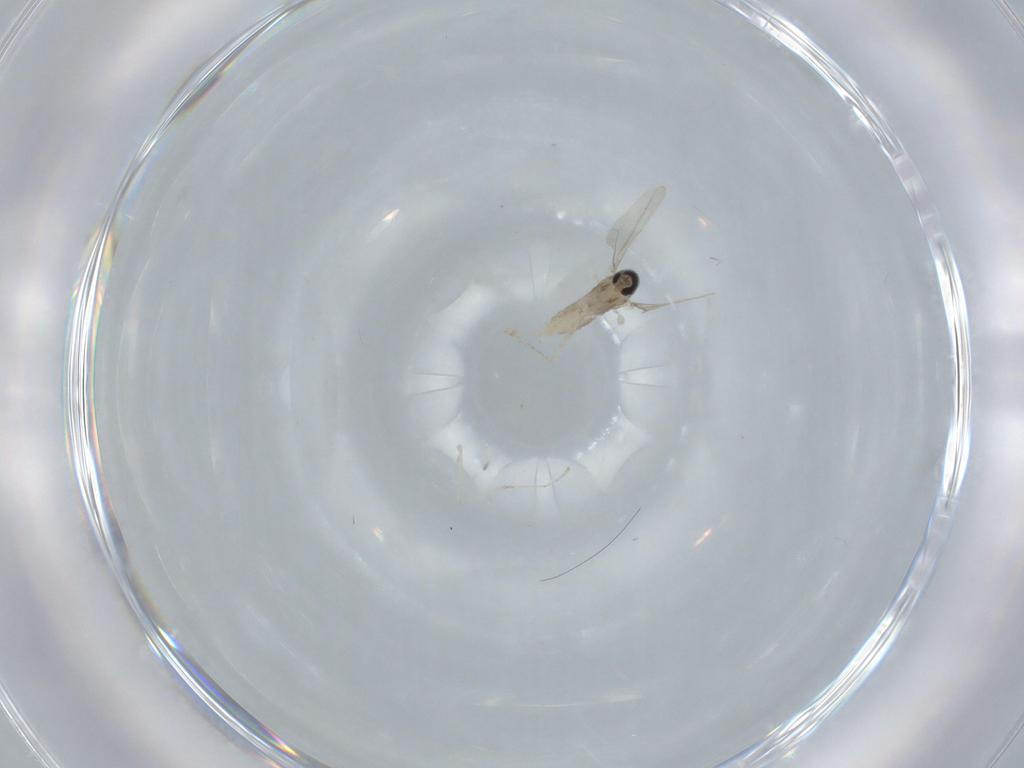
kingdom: Animalia
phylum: Arthropoda
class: Insecta
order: Diptera
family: Cecidomyiidae
